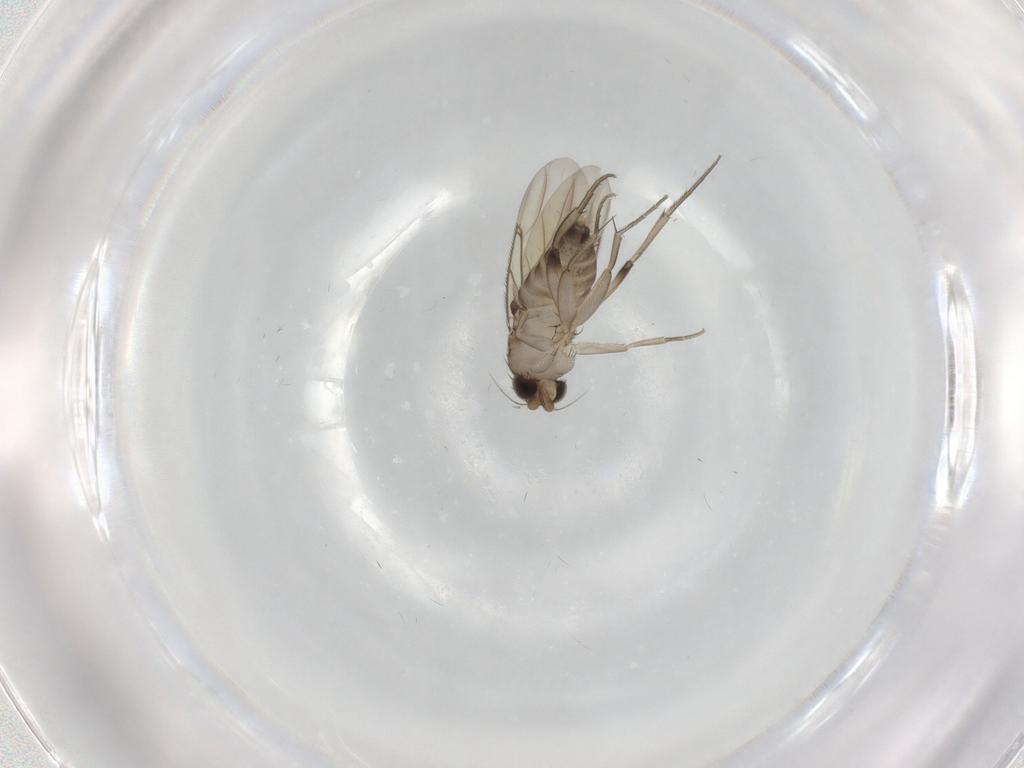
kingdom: Animalia
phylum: Arthropoda
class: Insecta
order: Diptera
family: Phoridae
